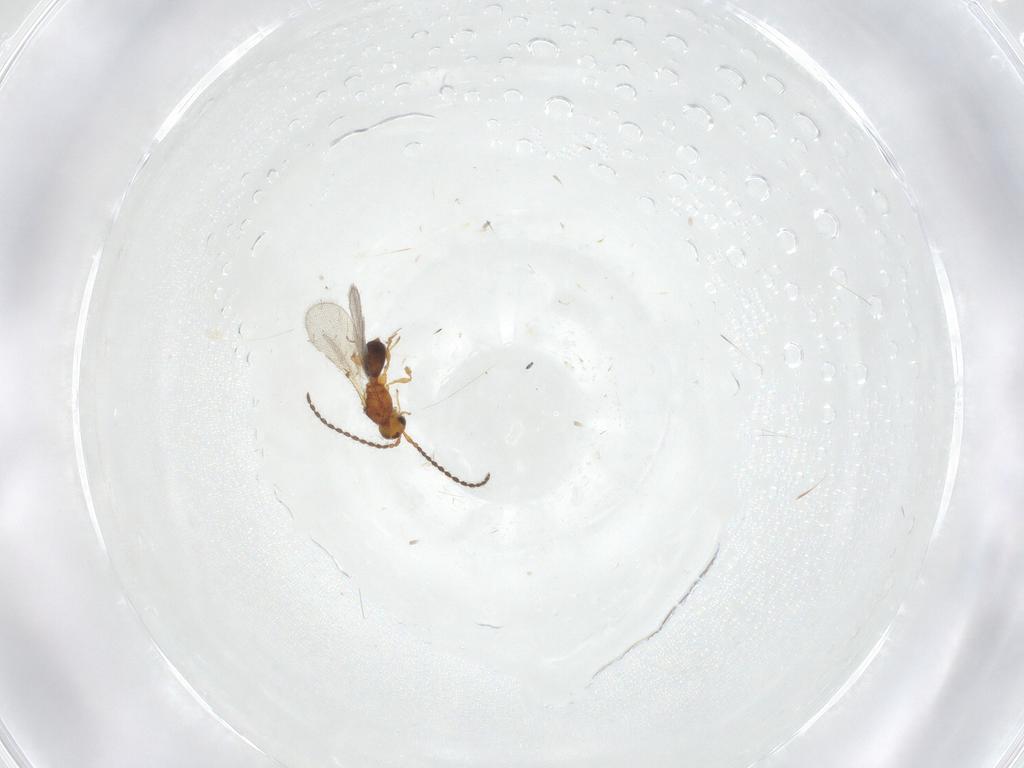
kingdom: Animalia
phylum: Arthropoda
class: Insecta
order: Hymenoptera
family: Diapriidae
